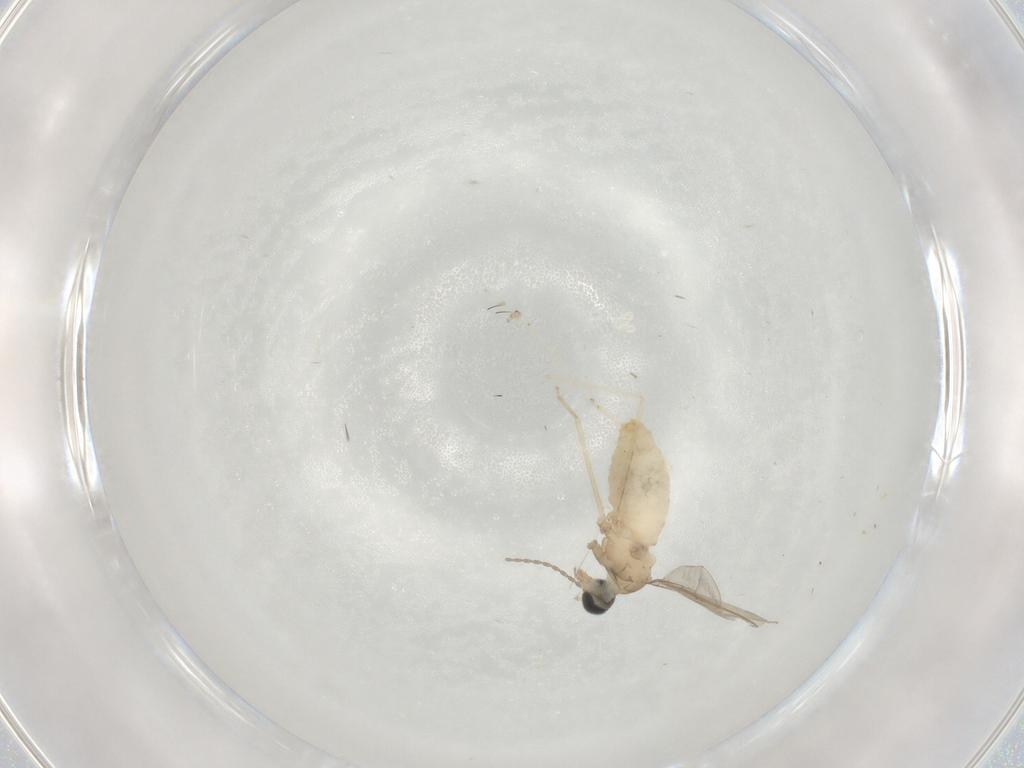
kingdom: Animalia
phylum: Arthropoda
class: Insecta
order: Diptera
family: Cecidomyiidae
